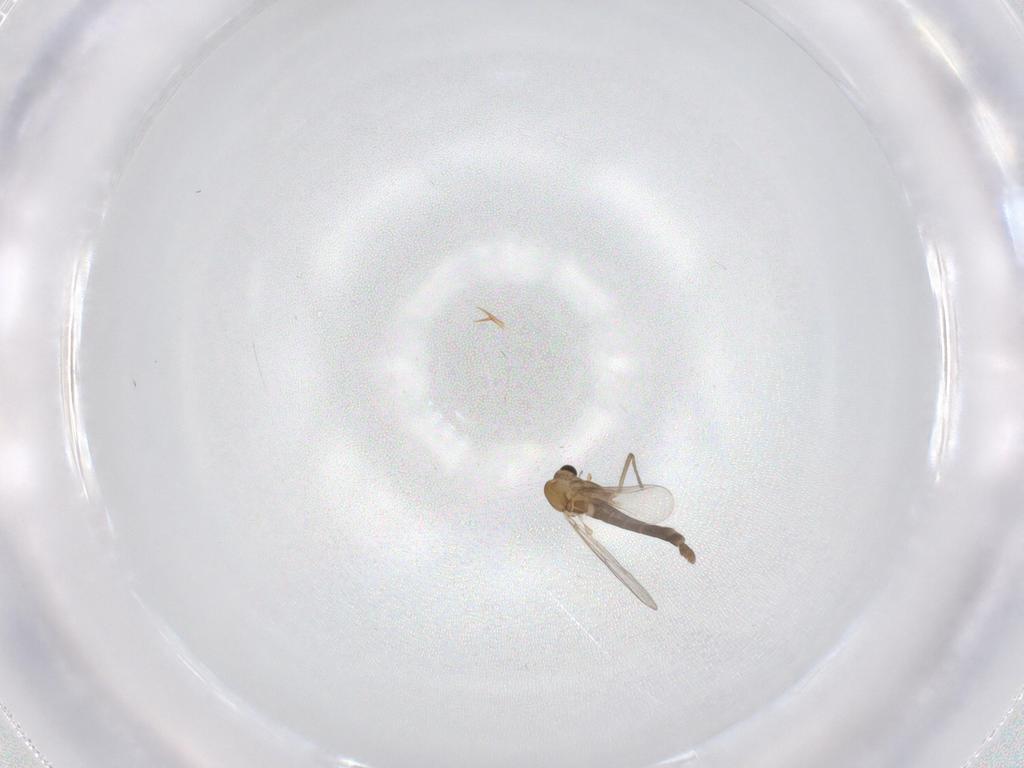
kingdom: Animalia
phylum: Arthropoda
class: Insecta
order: Diptera
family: Chironomidae
